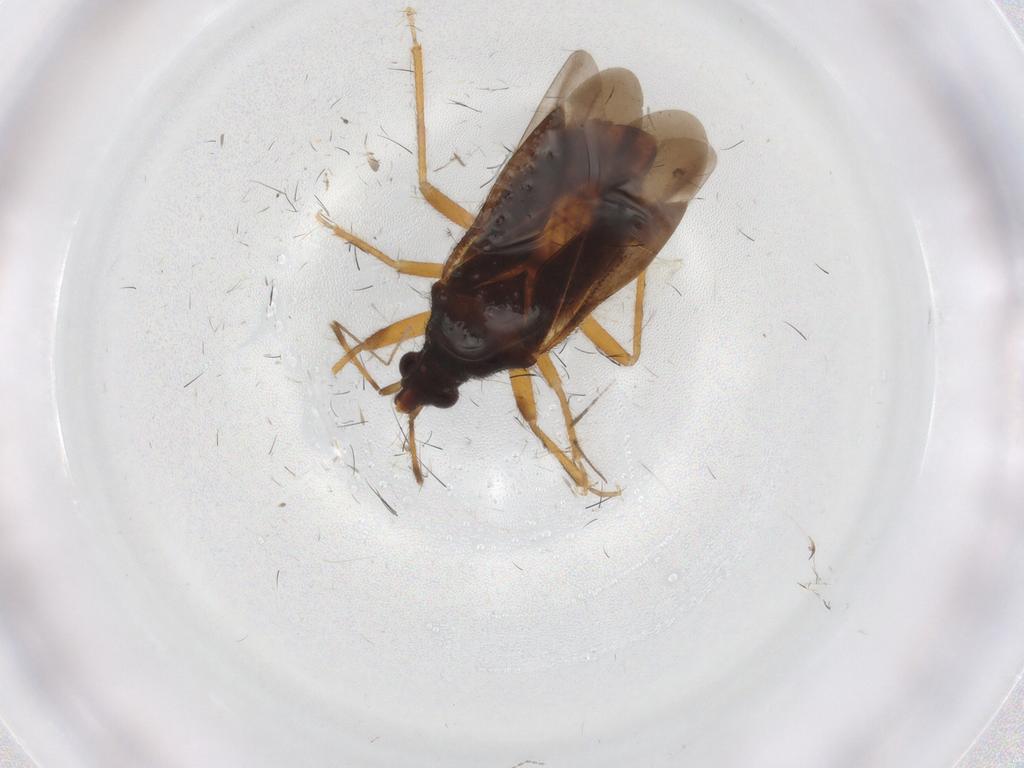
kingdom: Animalia
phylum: Arthropoda
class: Insecta
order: Hemiptera
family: Anthocoridae
